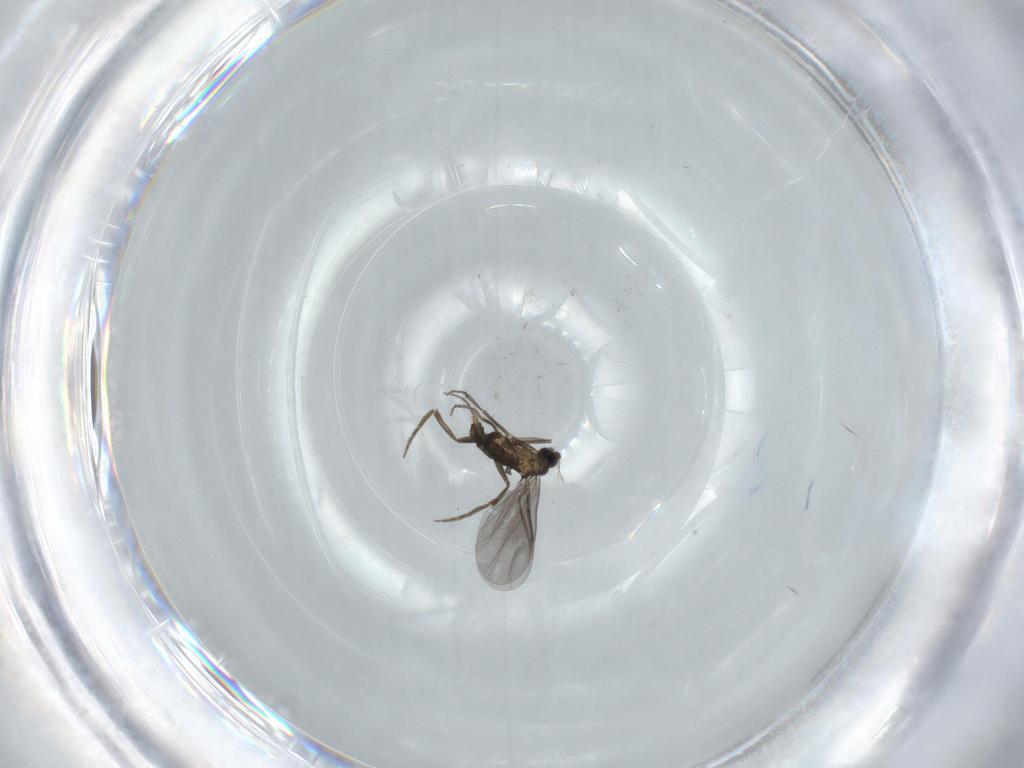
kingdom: Animalia
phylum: Arthropoda
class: Insecta
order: Diptera
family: Phoridae
